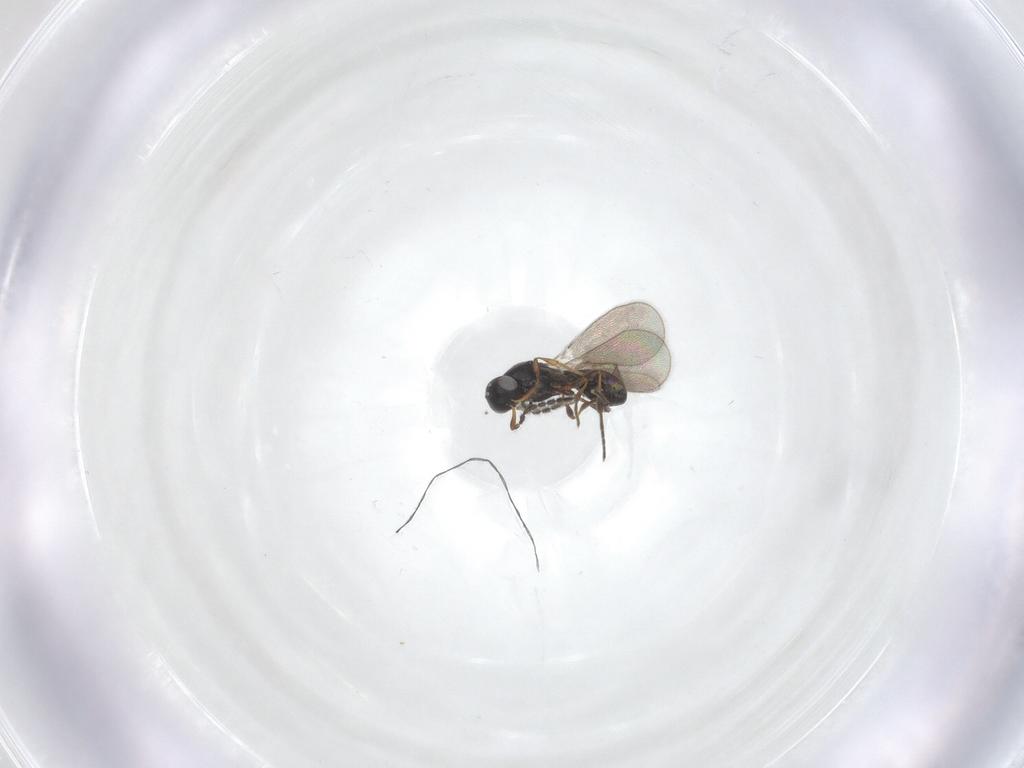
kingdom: Animalia
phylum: Arthropoda
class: Insecta
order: Hymenoptera
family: Platygastridae
